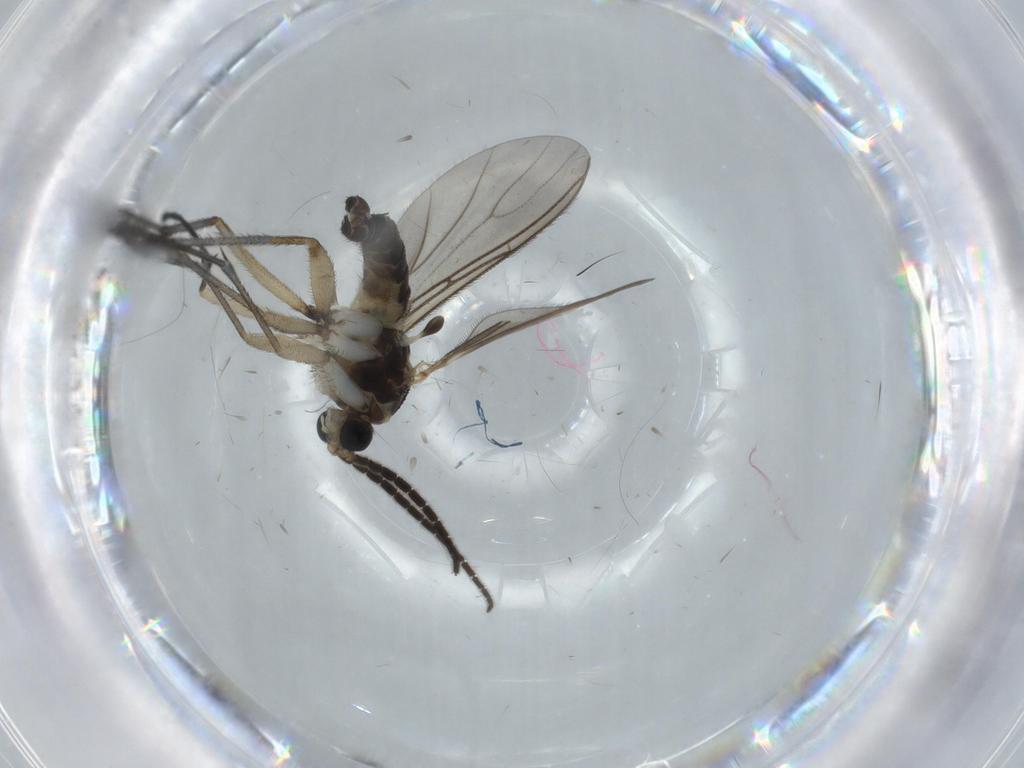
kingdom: Animalia
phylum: Arthropoda
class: Insecta
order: Diptera
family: Sciaridae
